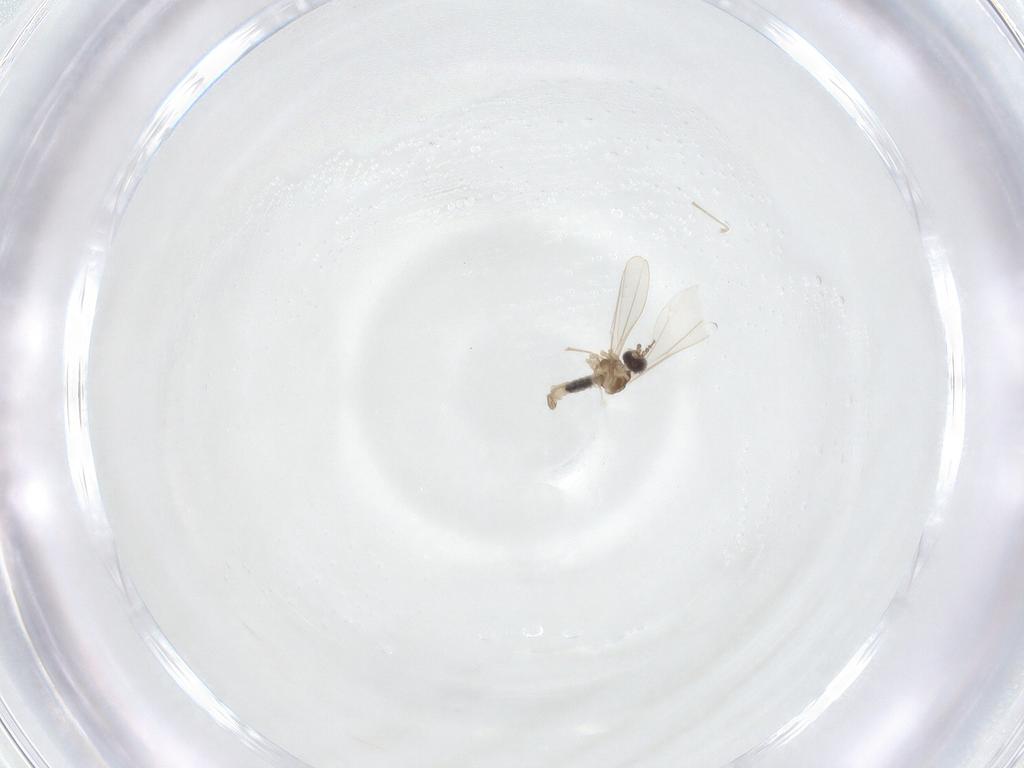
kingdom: Animalia
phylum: Arthropoda
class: Insecta
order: Diptera
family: Cecidomyiidae
